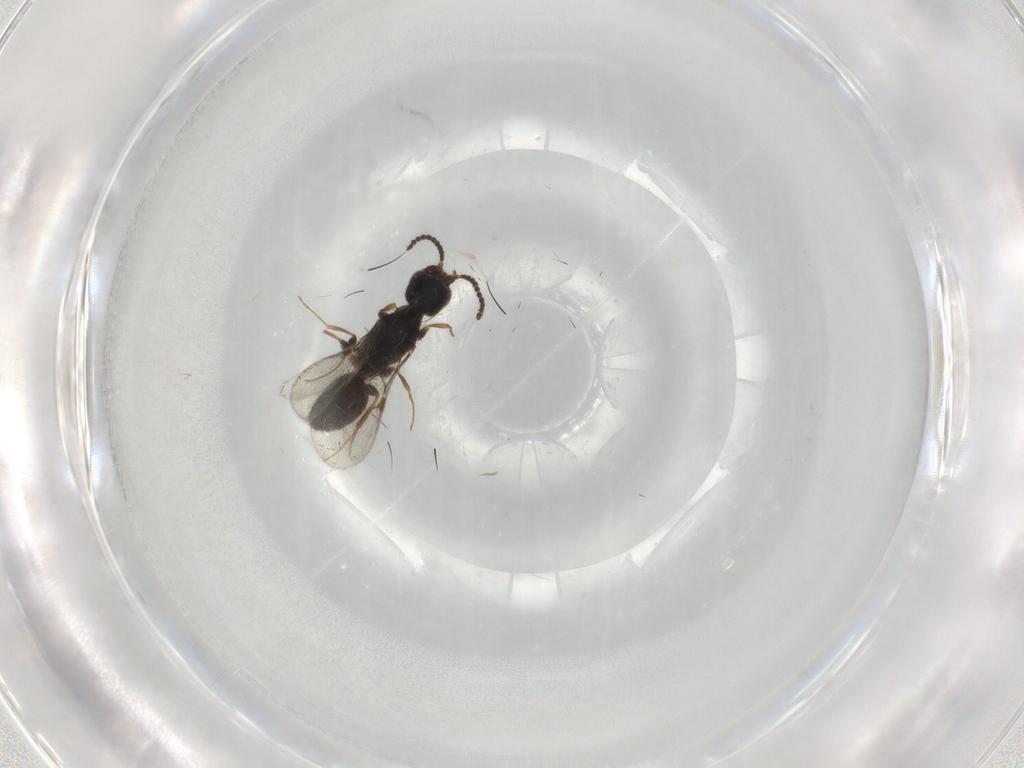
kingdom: Animalia
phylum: Arthropoda
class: Insecta
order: Hymenoptera
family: Bethylidae
